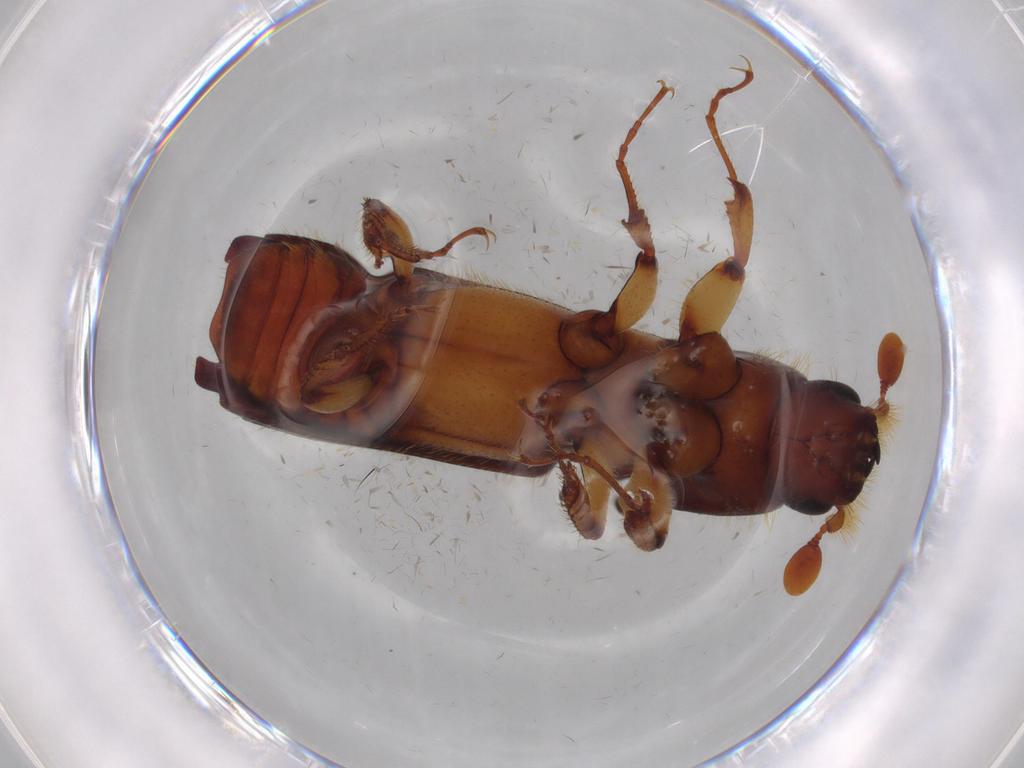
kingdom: Animalia
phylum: Arthropoda
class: Insecta
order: Coleoptera
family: Curculionidae
